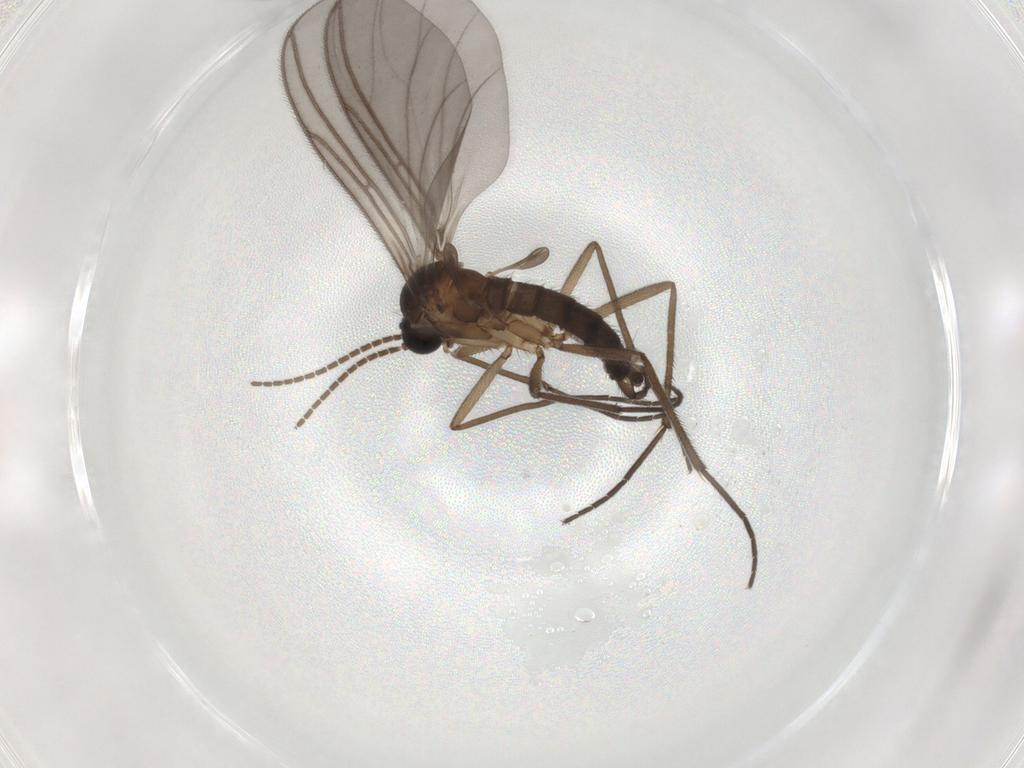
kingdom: Animalia
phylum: Arthropoda
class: Insecta
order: Diptera
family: Sciaridae
